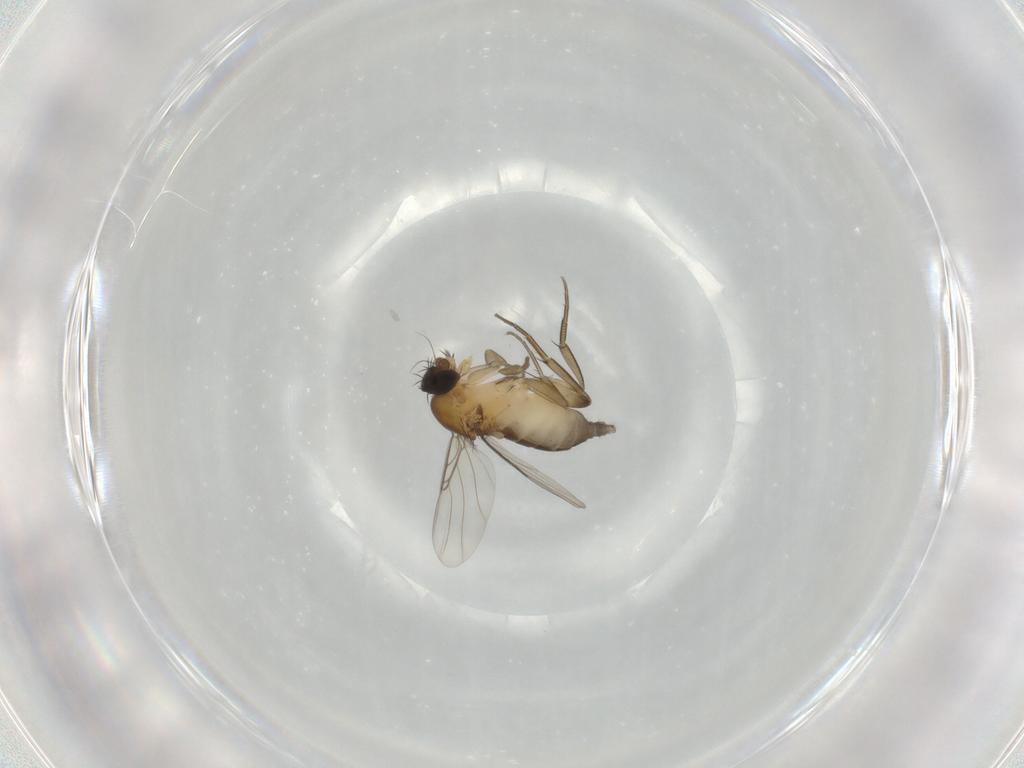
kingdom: Animalia
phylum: Arthropoda
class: Insecta
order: Diptera
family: Phoridae
